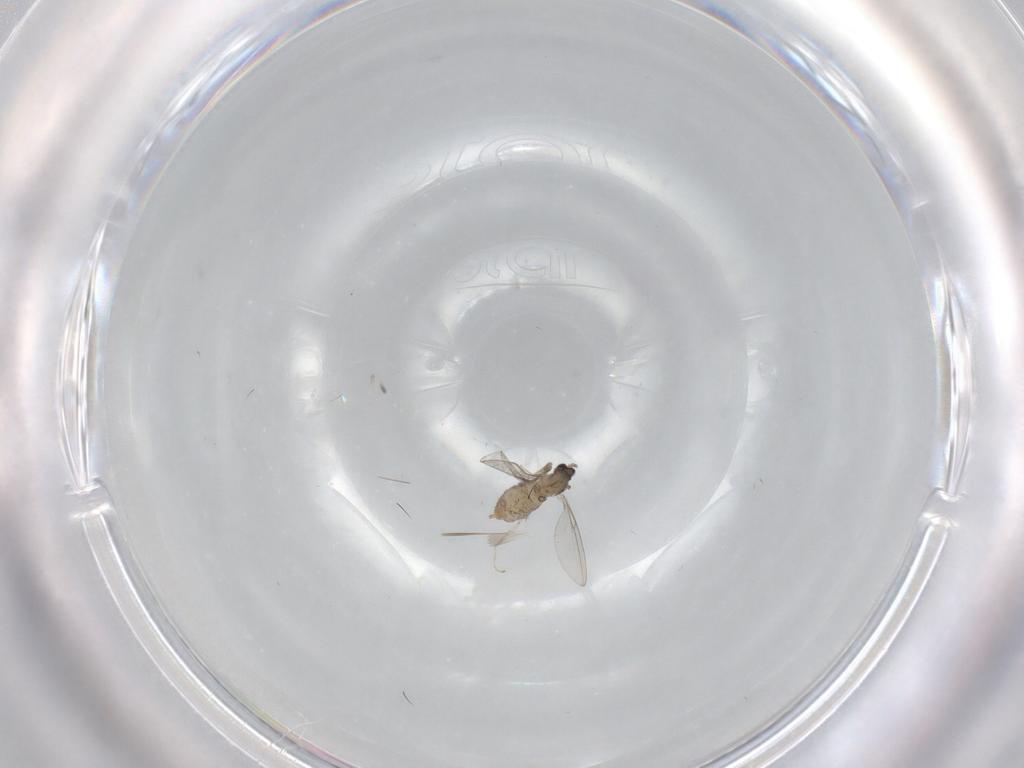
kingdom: Animalia
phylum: Arthropoda
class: Insecta
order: Diptera
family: Cecidomyiidae
